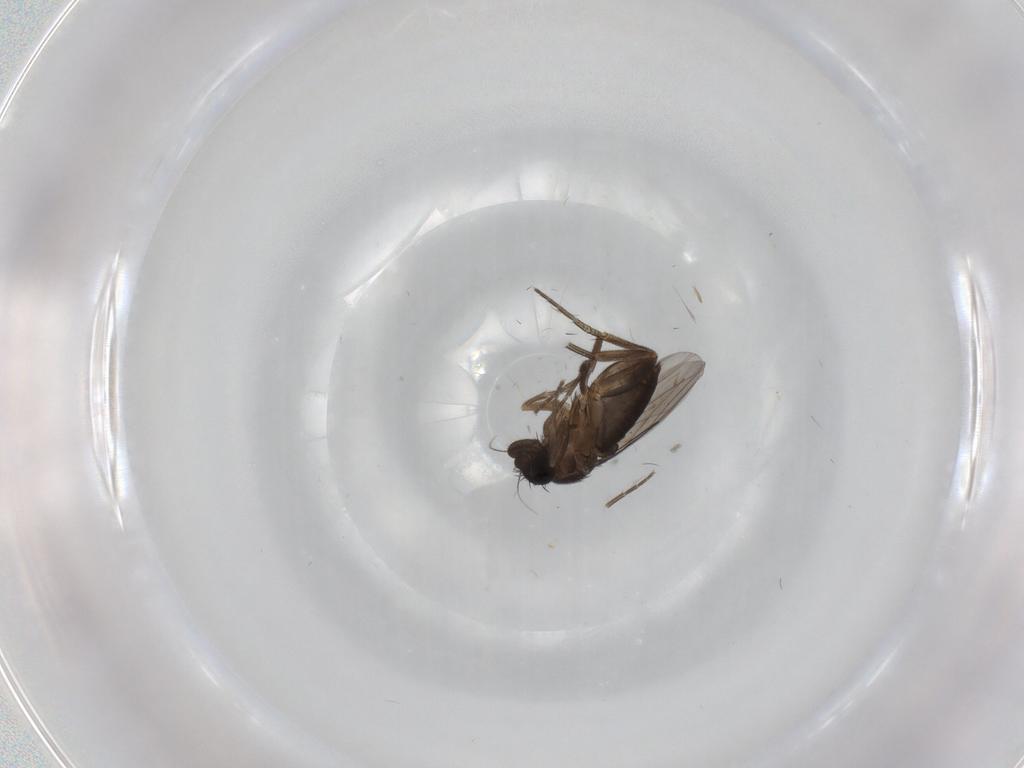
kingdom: Animalia
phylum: Arthropoda
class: Insecta
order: Diptera
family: Phoridae
